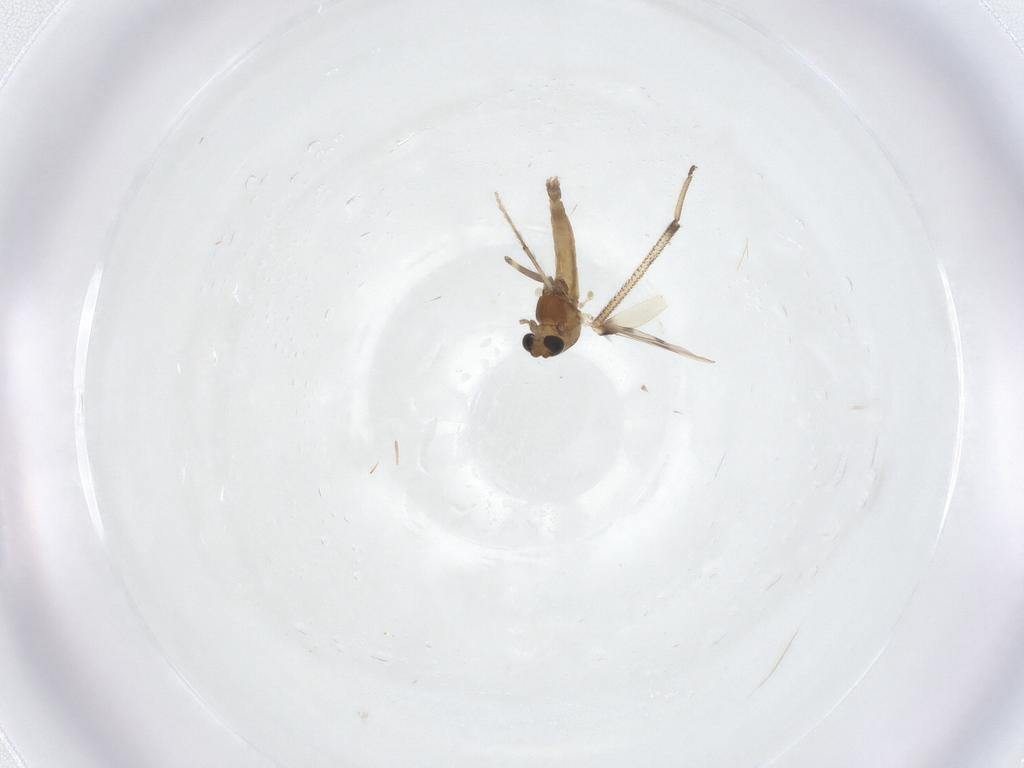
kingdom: Animalia
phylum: Arthropoda
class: Insecta
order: Diptera
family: Chironomidae
